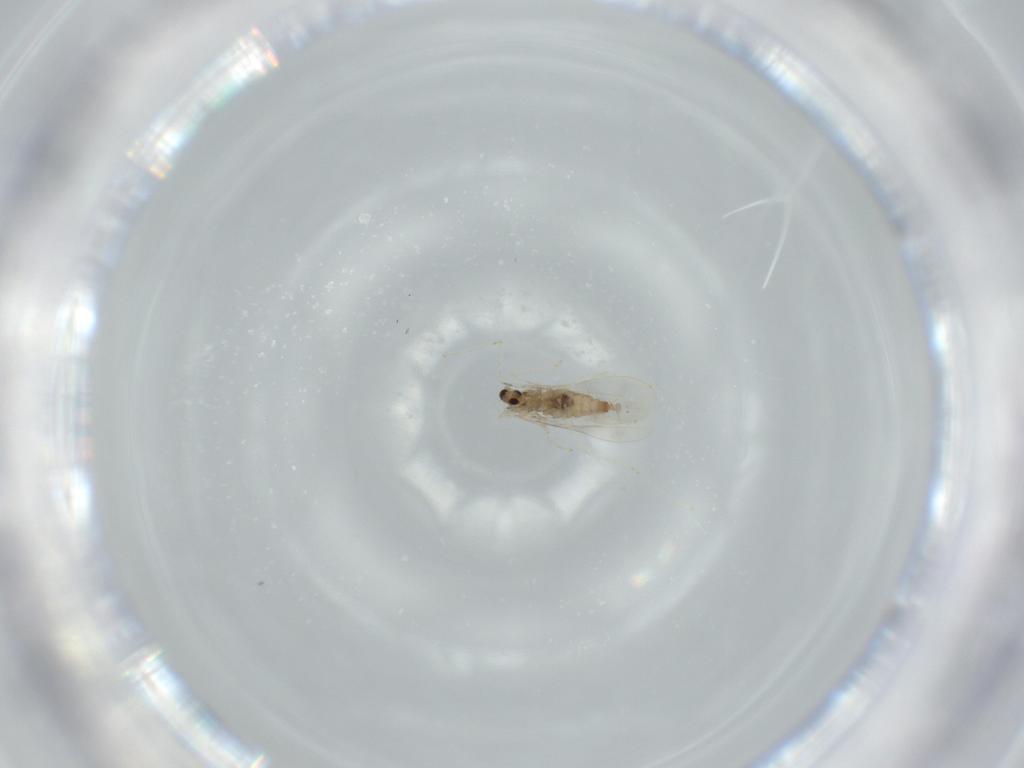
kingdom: Animalia
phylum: Arthropoda
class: Insecta
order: Diptera
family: Cecidomyiidae
